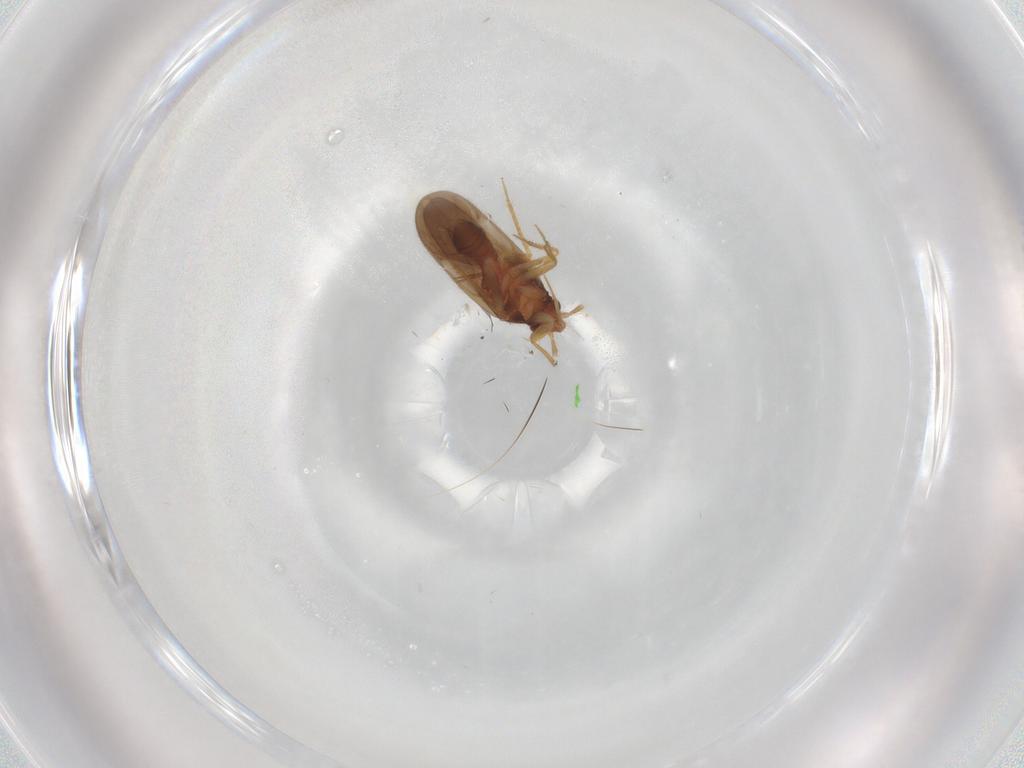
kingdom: Animalia
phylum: Arthropoda
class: Insecta
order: Hemiptera
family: Ceratocombidae
